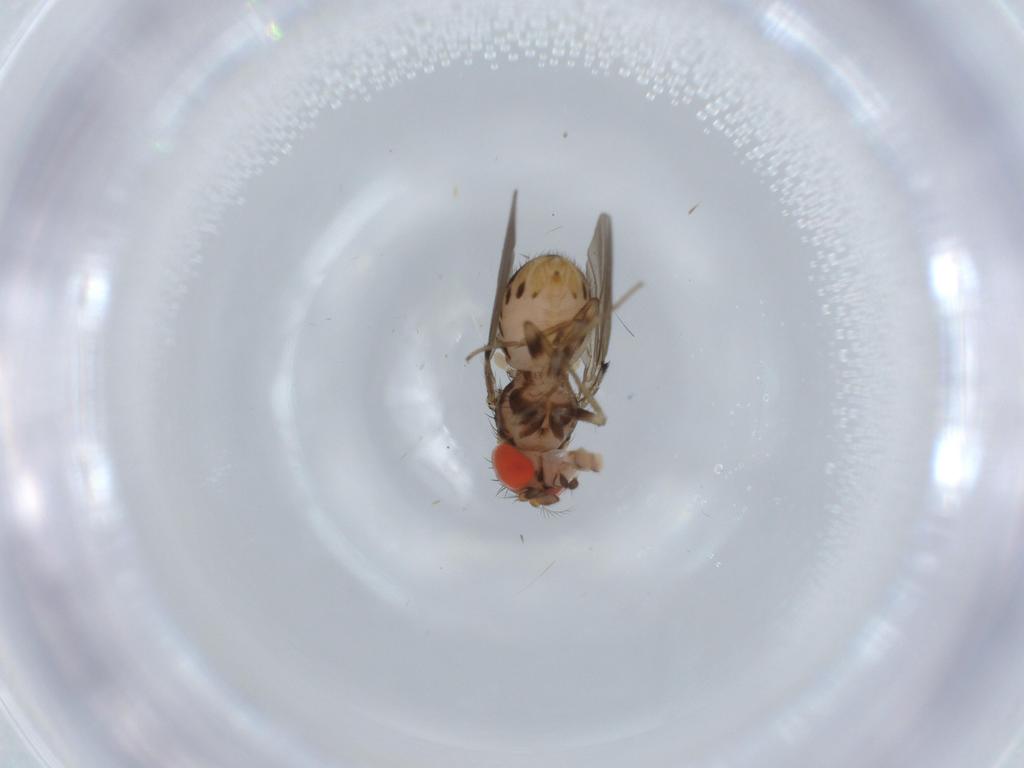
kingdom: Animalia
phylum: Arthropoda
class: Insecta
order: Diptera
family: Drosophilidae
